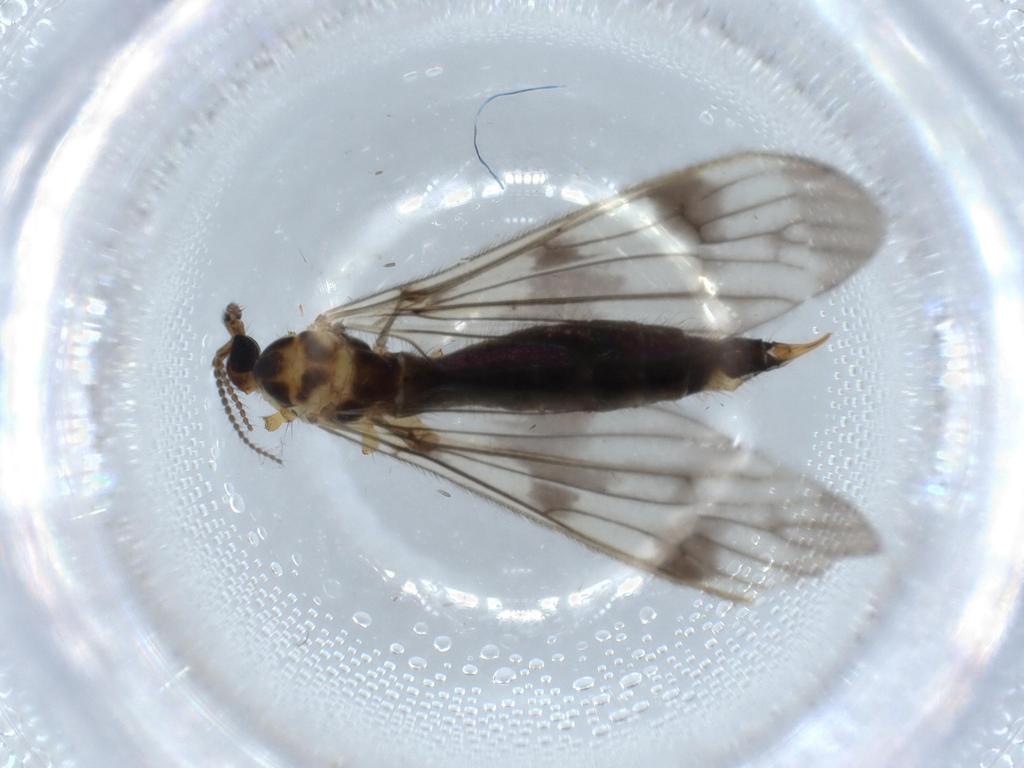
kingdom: Animalia
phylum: Arthropoda
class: Insecta
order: Diptera
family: Limoniidae
